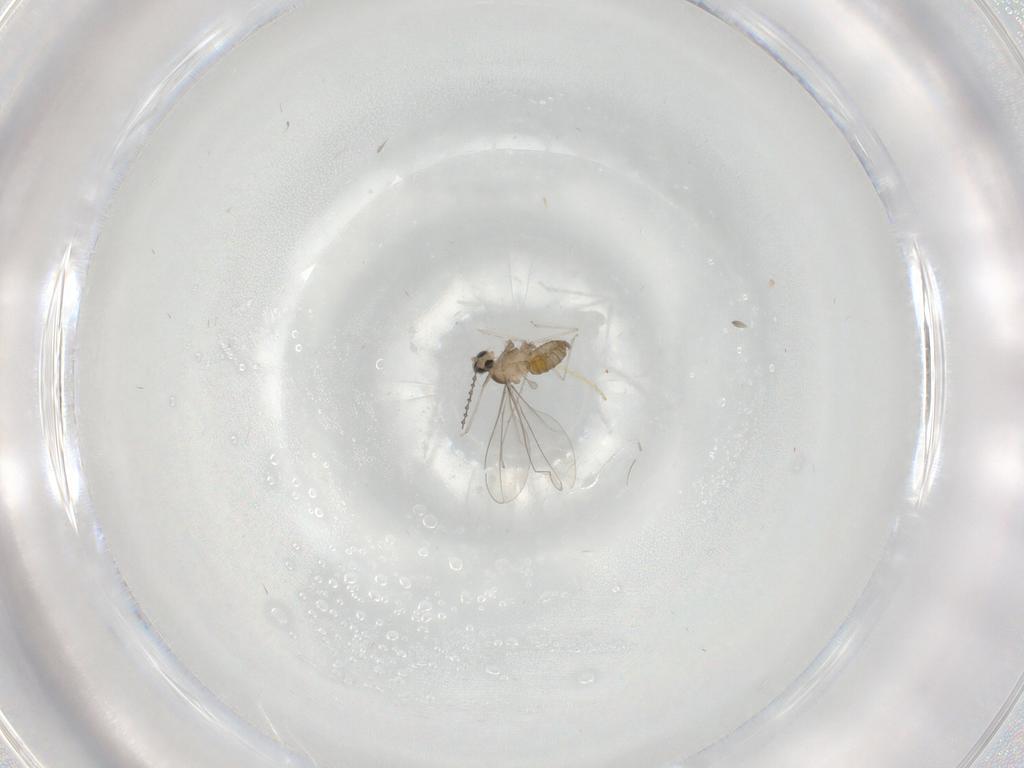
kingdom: Animalia
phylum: Arthropoda
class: Insecta
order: Diptera
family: Cecidomyiidae
